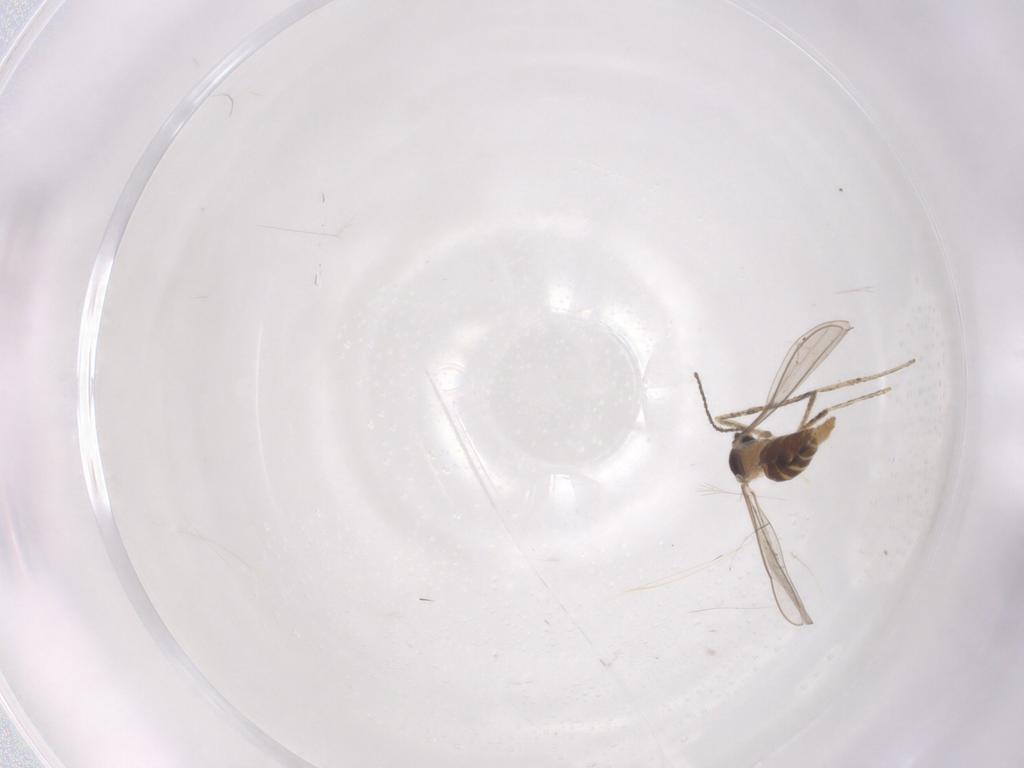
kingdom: Animalia
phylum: Arthropoda
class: Insecta
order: Diptera
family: Cecidomyiidae
